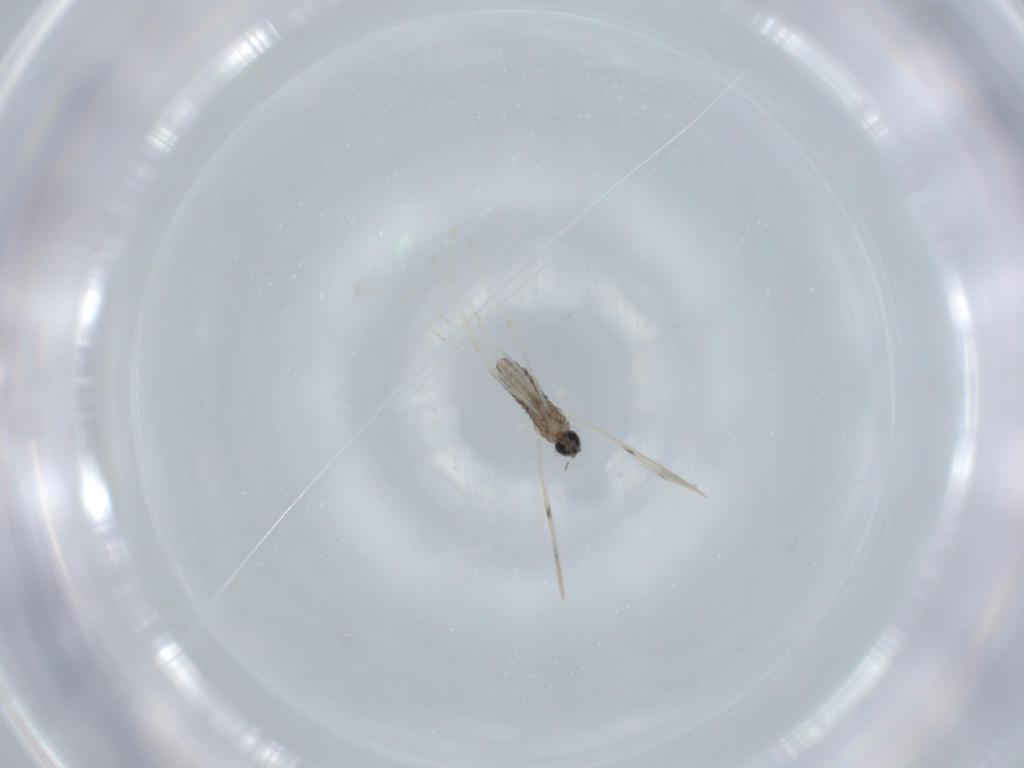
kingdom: Animalia
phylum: Arthropoda
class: Insecta
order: Diptera
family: Cecidomyiidae
